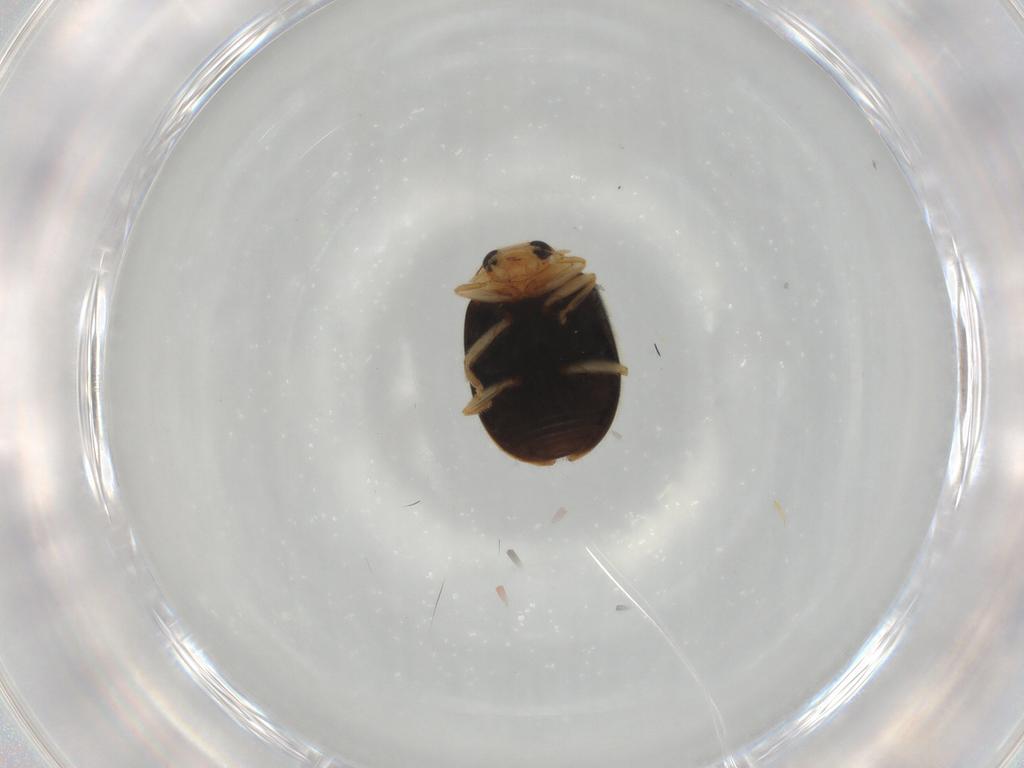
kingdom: Animalia
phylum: Arthropoda
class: Insecta
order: Coleoptera
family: Coccinellidae
